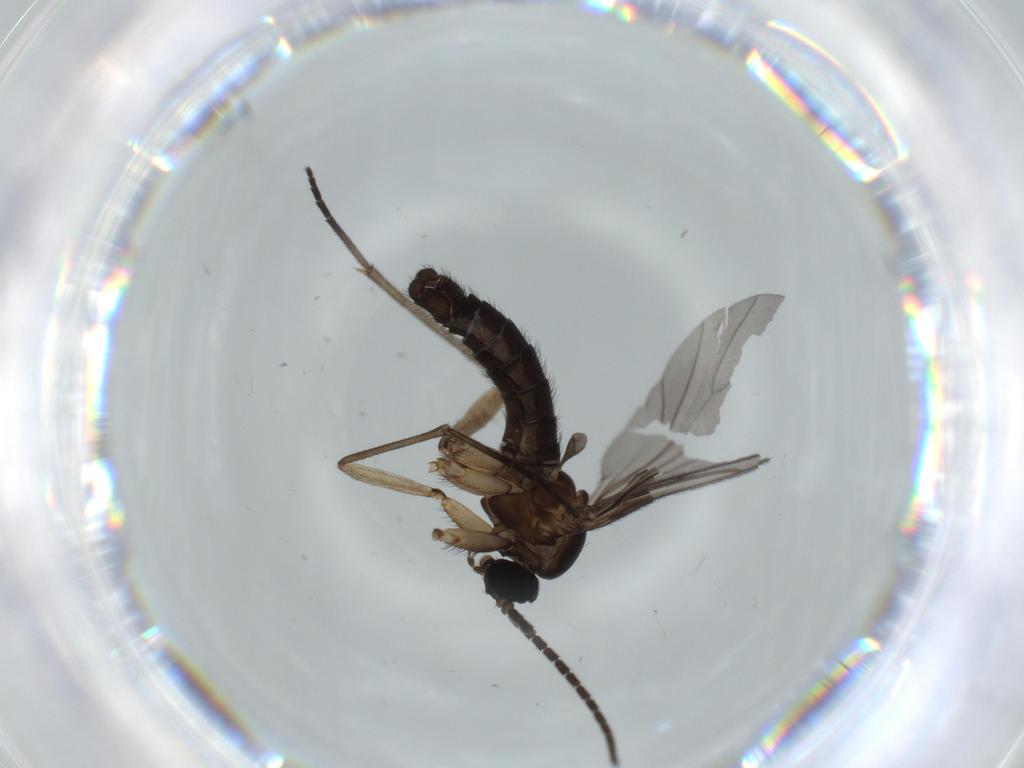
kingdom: Animalia
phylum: Arthropoda
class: Insecta
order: Diptera
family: Sciaridae
